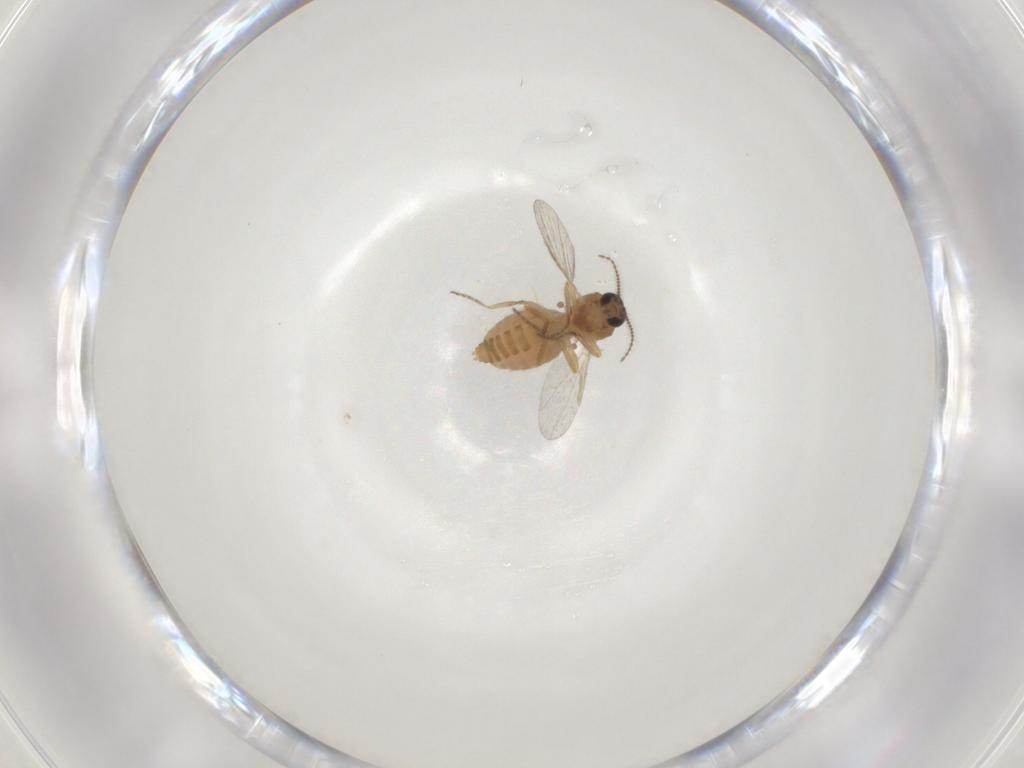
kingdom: Animalia
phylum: Arthropoda
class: Insecta
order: Diptera
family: Ceratopogonidae
